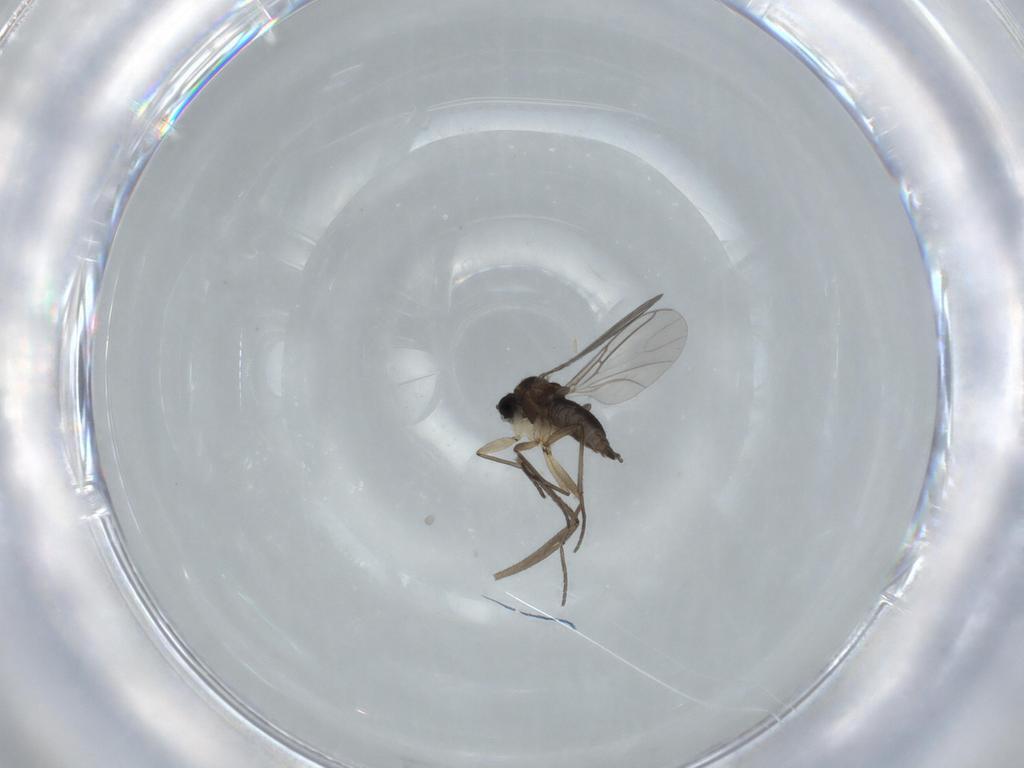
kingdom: Animalia
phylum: Arthropoda
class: Insecta
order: Diptera
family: Sciaridae
